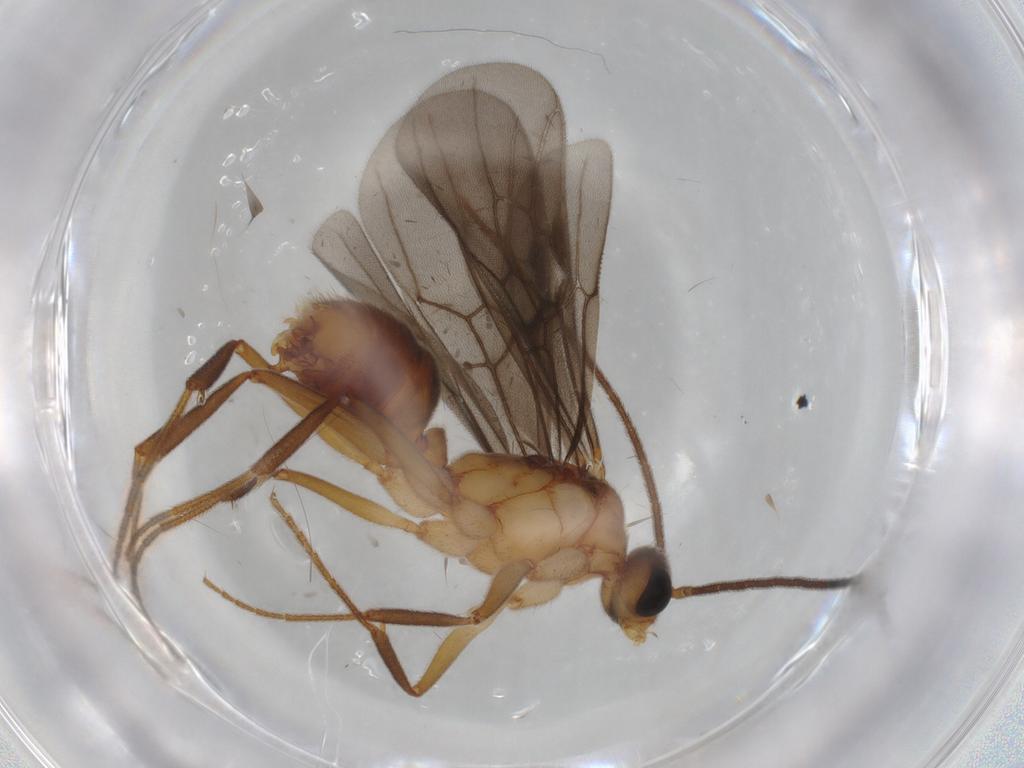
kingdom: Animalia
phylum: Arthropoda
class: Insecta
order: Hymenoptera
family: Formicidae
